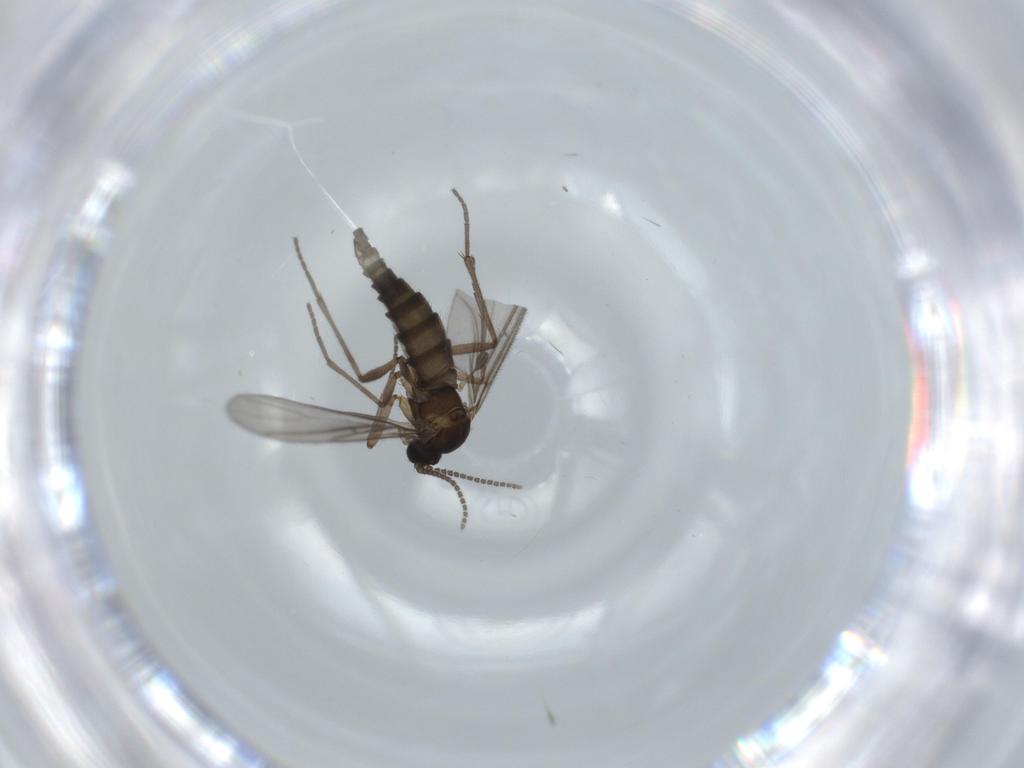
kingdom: Animalia
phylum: Arthropoda
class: Insecta
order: Diptera
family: Sciaridae
